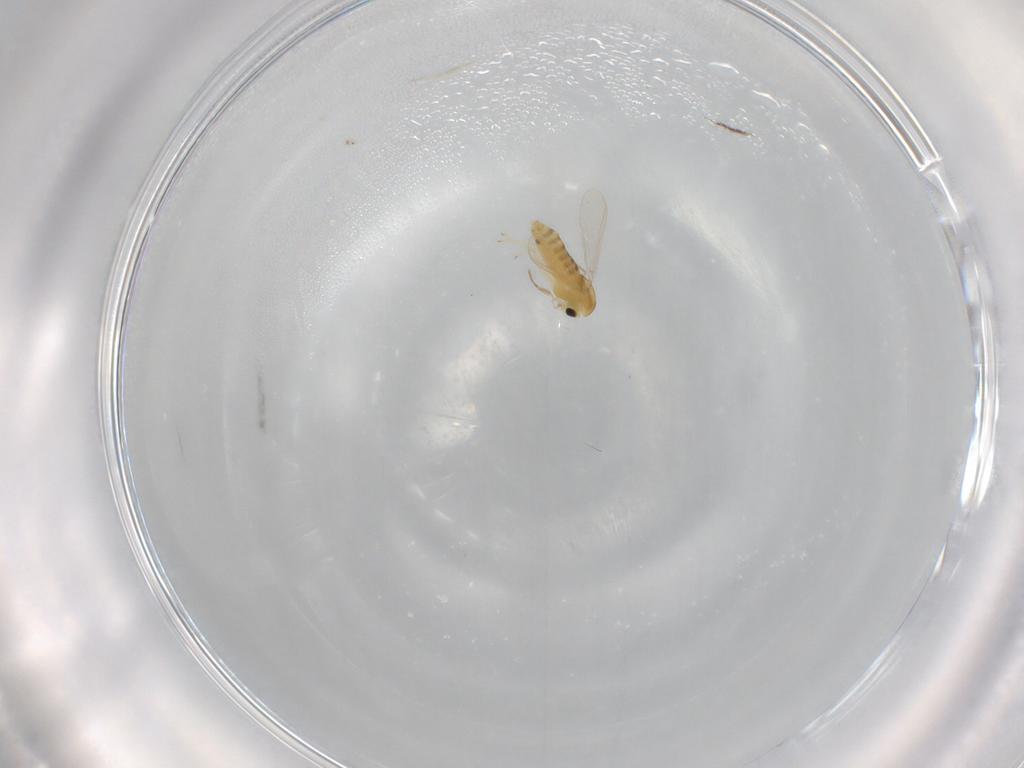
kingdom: Animalia
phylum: Arthropoda
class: Insecta
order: Diptera
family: Chironomidae
